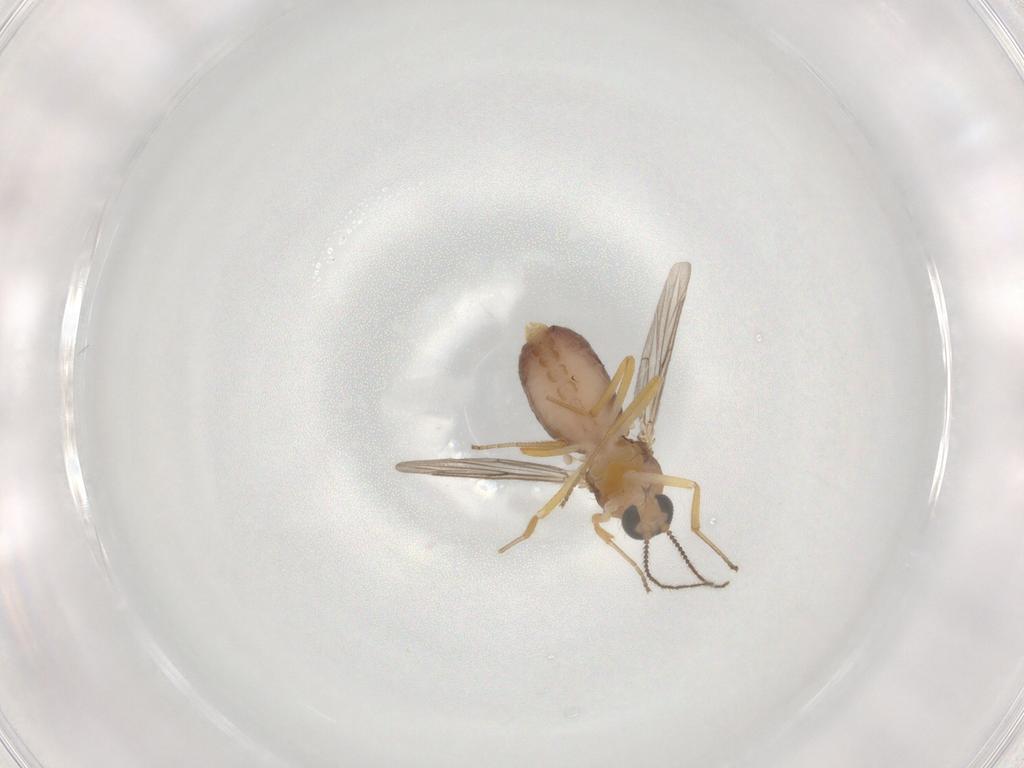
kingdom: Animalia
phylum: Arthropoda
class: Insecta
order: Diptera
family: Ceratopogonidae
